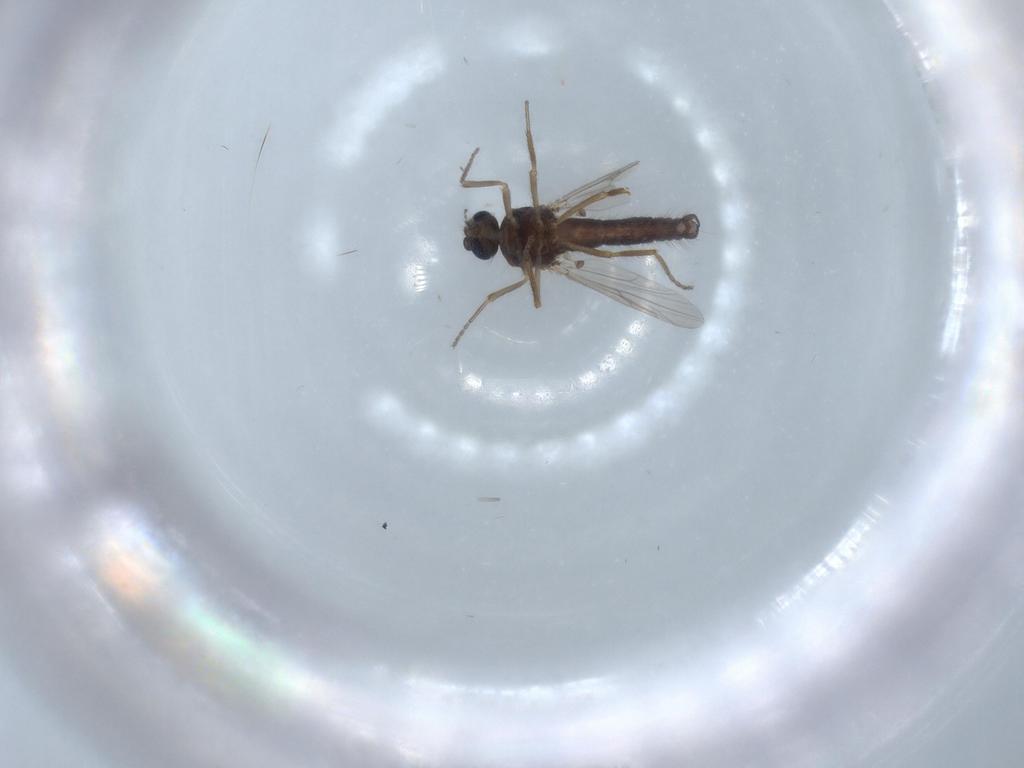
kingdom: Animalia
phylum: Arthropoda
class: Insecta
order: Diptera
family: Ceratopogonidae
